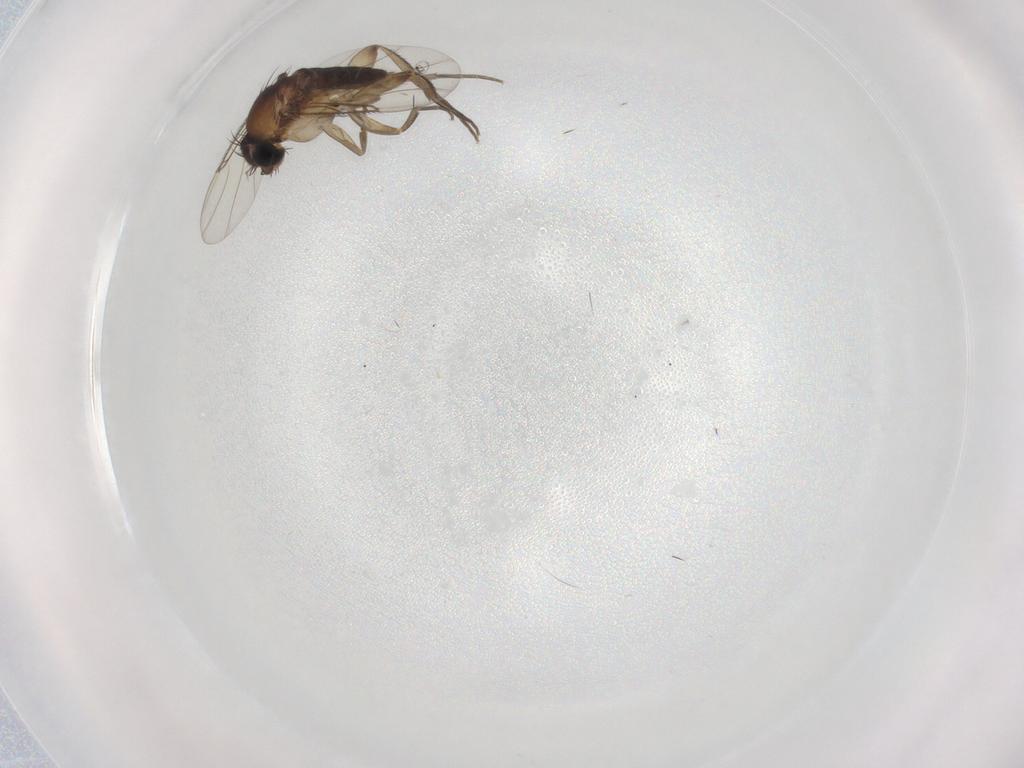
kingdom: Animalia
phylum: Arthropoda
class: Insecta
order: Diptera
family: Phoridae
